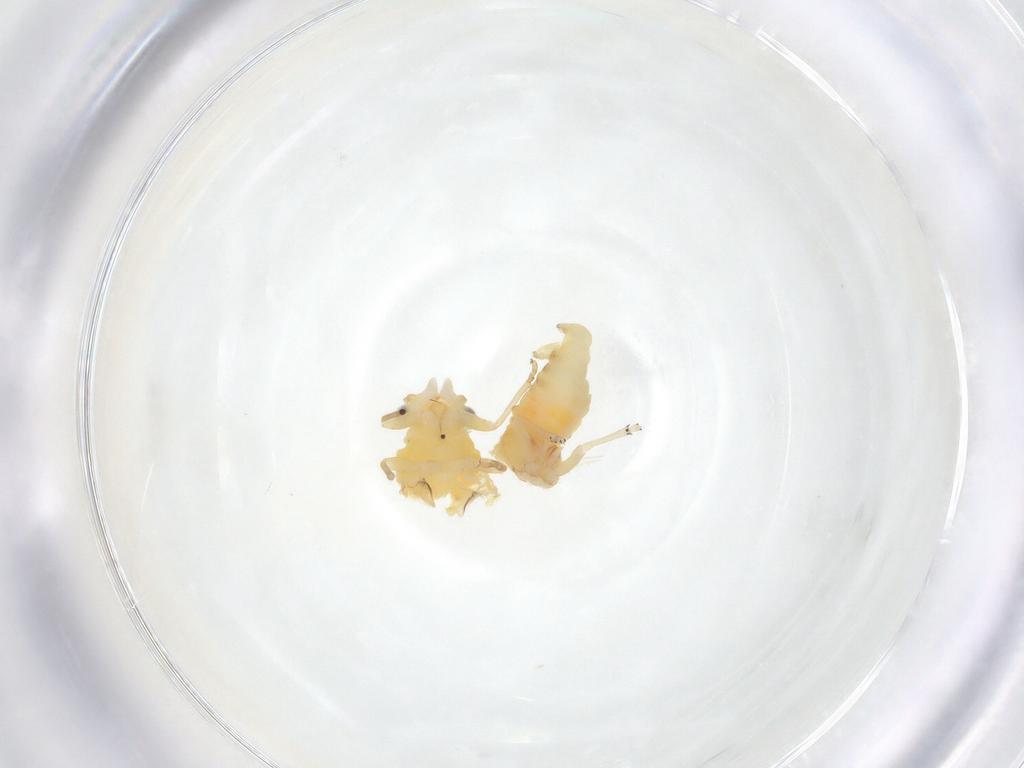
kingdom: Animalia
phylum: Arthropoda
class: Insecta
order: Hemiptera
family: Psyllidae
